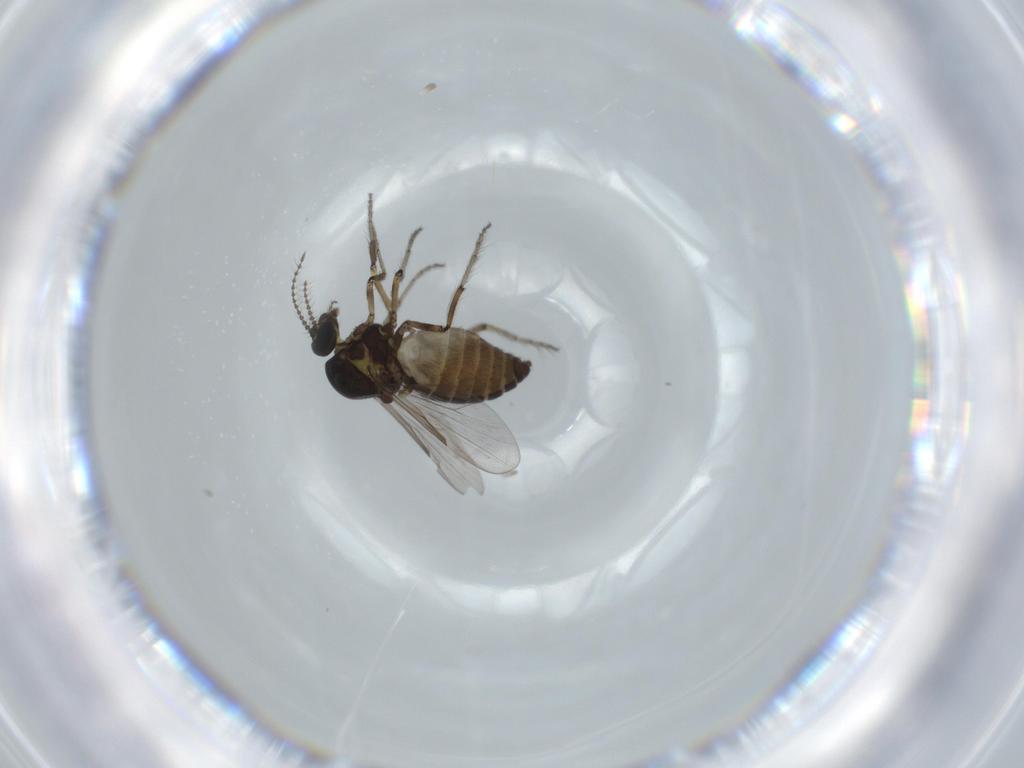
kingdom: Animalia
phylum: Arthropoda
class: Insecta
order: Diptera
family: Ceratopogonidae
